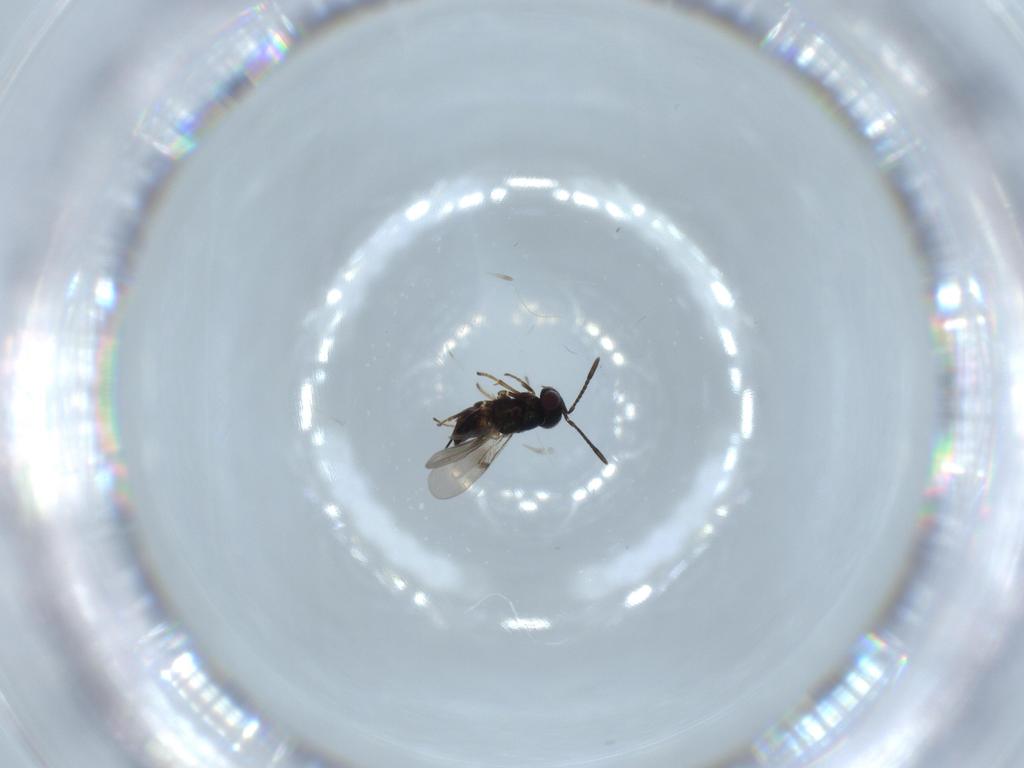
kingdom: Animalia
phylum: Arthropoda
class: Insecta
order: Hymenoptera
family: Encyrtidae
